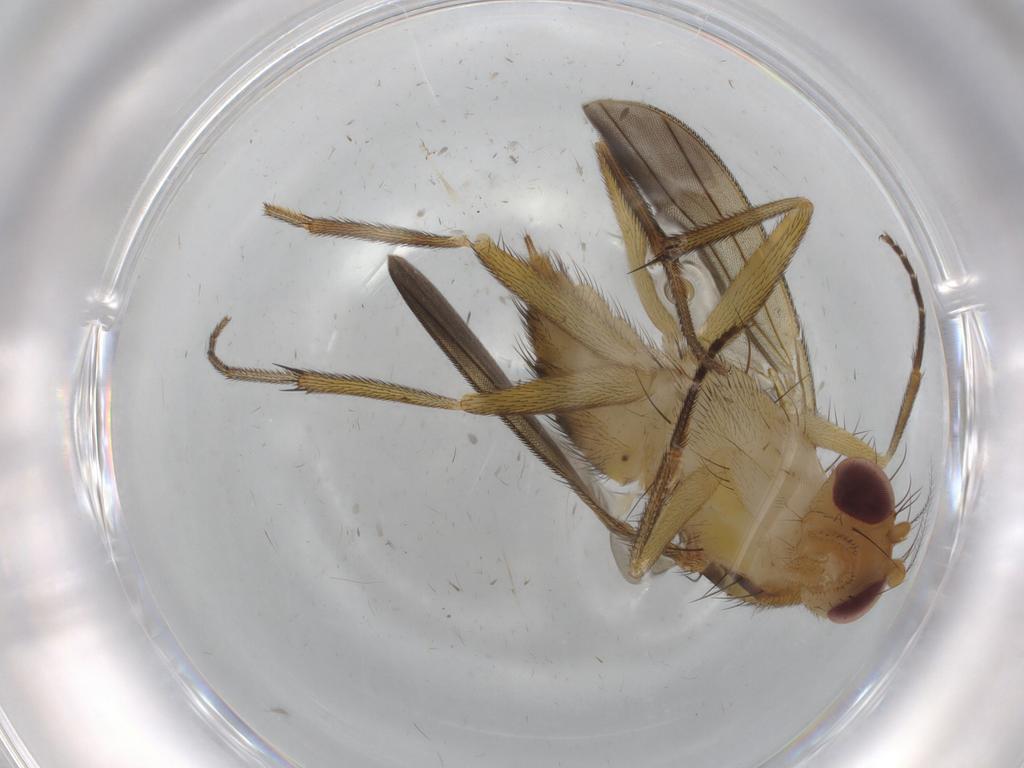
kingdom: Animalia
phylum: Arthropoda
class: Insecta
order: Diptera
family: Clusiidae
